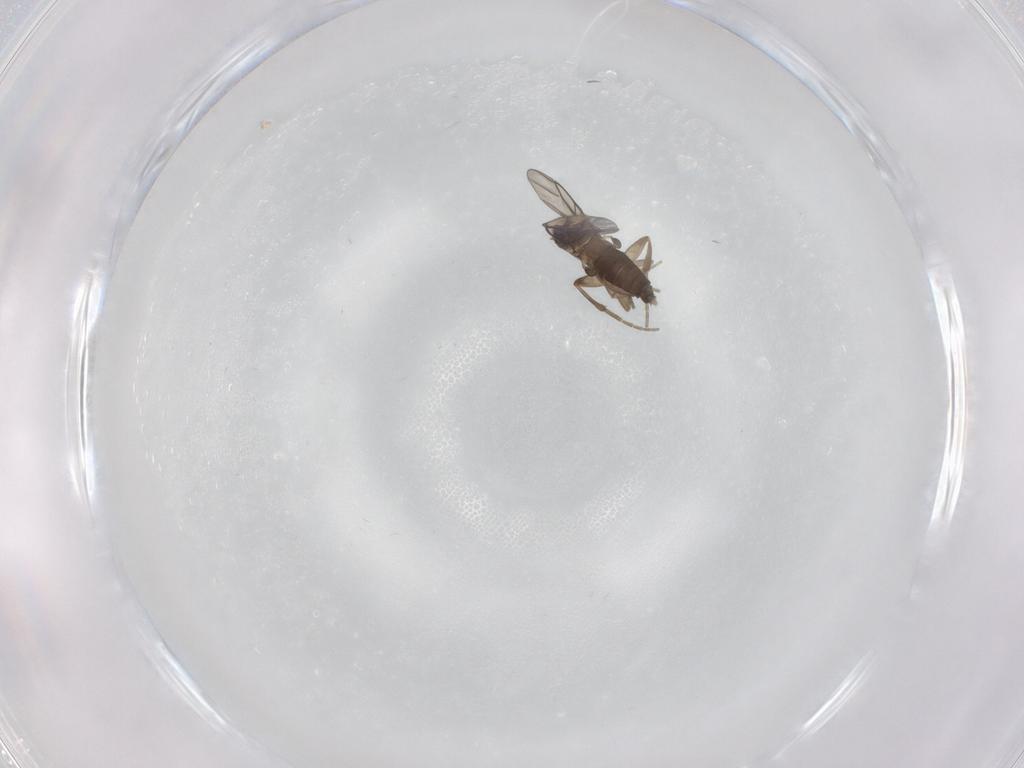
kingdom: Animalia
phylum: Arthropoda
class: Insecta
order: Diptera
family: Phoridae
